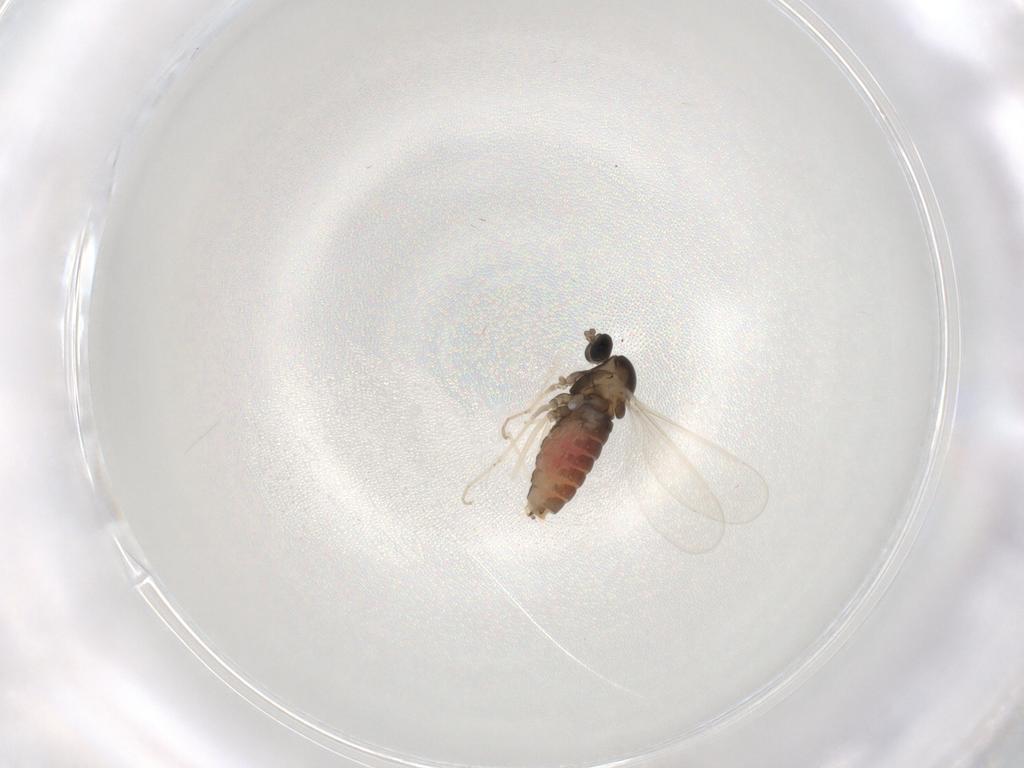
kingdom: Animalia
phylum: Arthropoda
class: Insecta
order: Diptera
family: Cecidomyiidae
